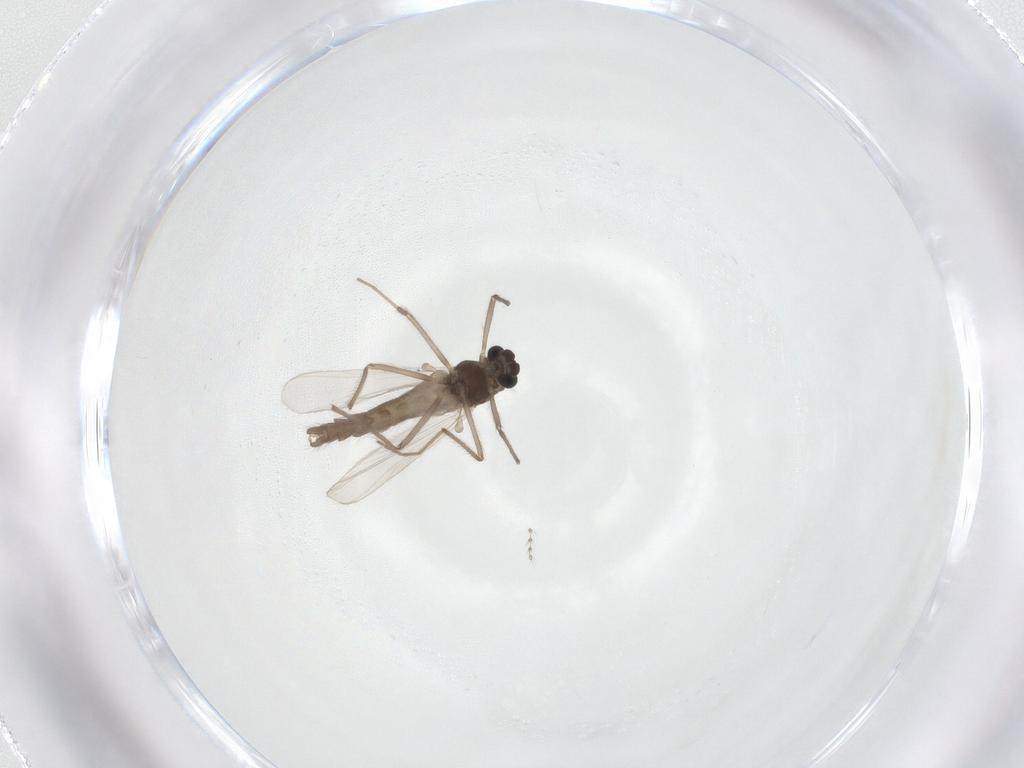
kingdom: Animalia
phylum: Arthropoda
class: Insecta
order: Diptera
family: Chironomidae
